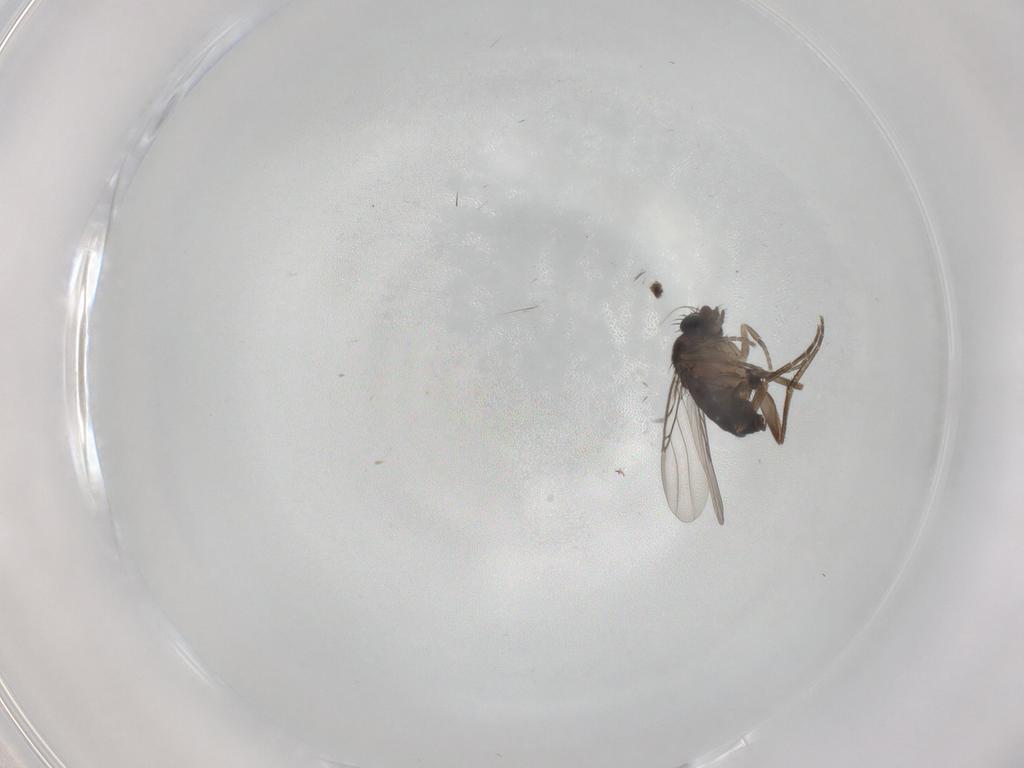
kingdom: Animalia
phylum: Arthropoda
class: Insecta
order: Diptera
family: Phoridae
